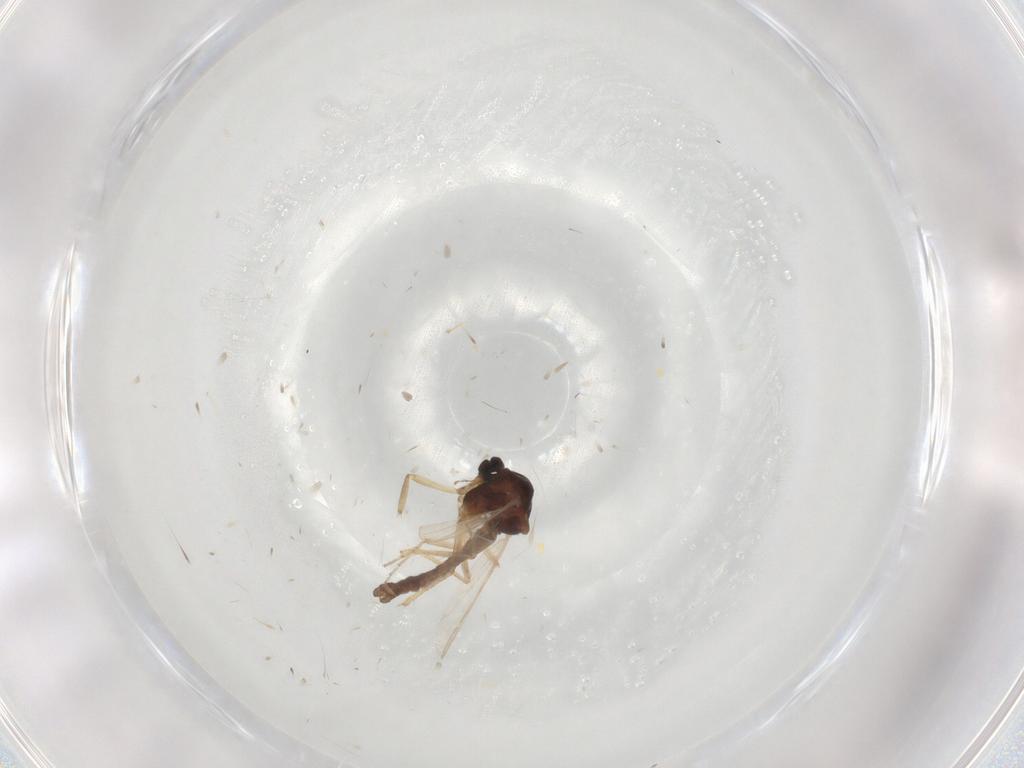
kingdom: Animalia
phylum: Arthropoda
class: Insecta
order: Diptera
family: Ceratopogonidae
